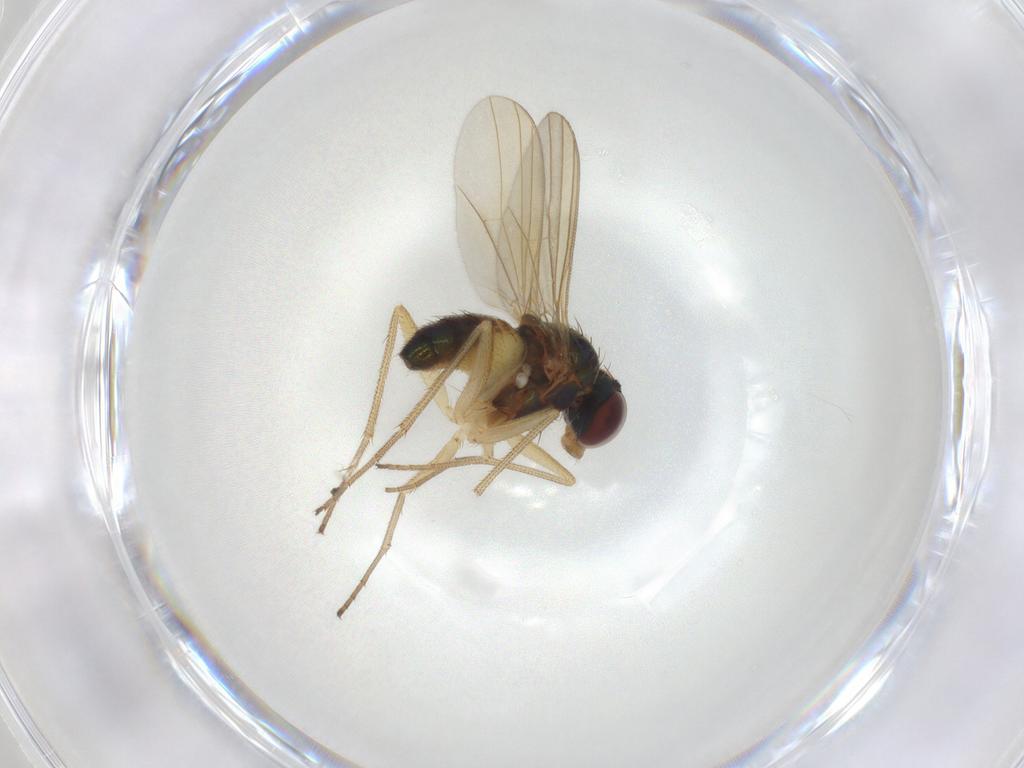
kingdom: Animalia
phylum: Arthropoda
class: Insecta
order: Diptera
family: Dolichopodidae
